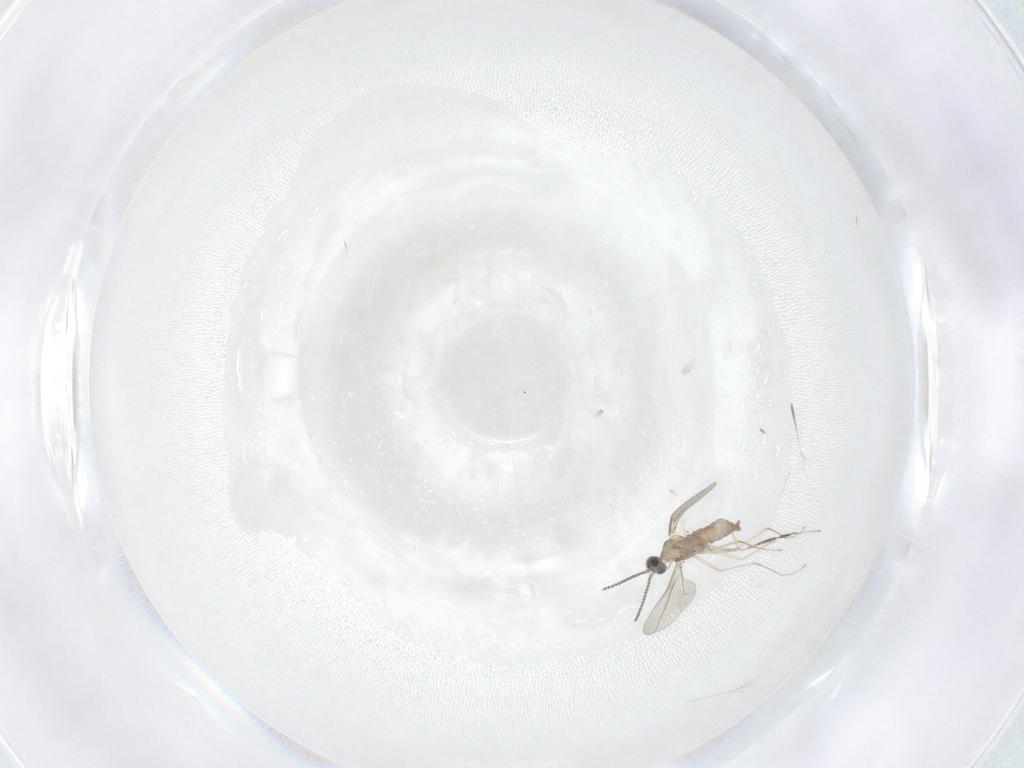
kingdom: Animalia
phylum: Arthropoda
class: Insecta
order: Diptera
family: Cecidomyiidae
